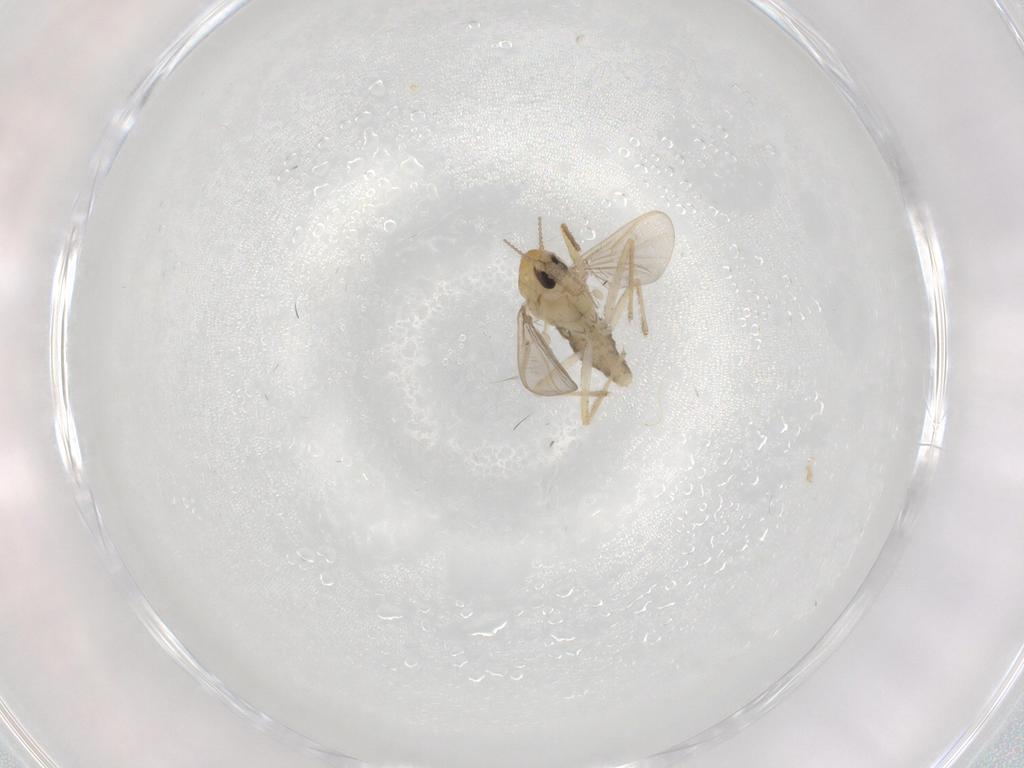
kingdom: Animalia
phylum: Arthropoda
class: Insecta
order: Diptera
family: Chironomidae
